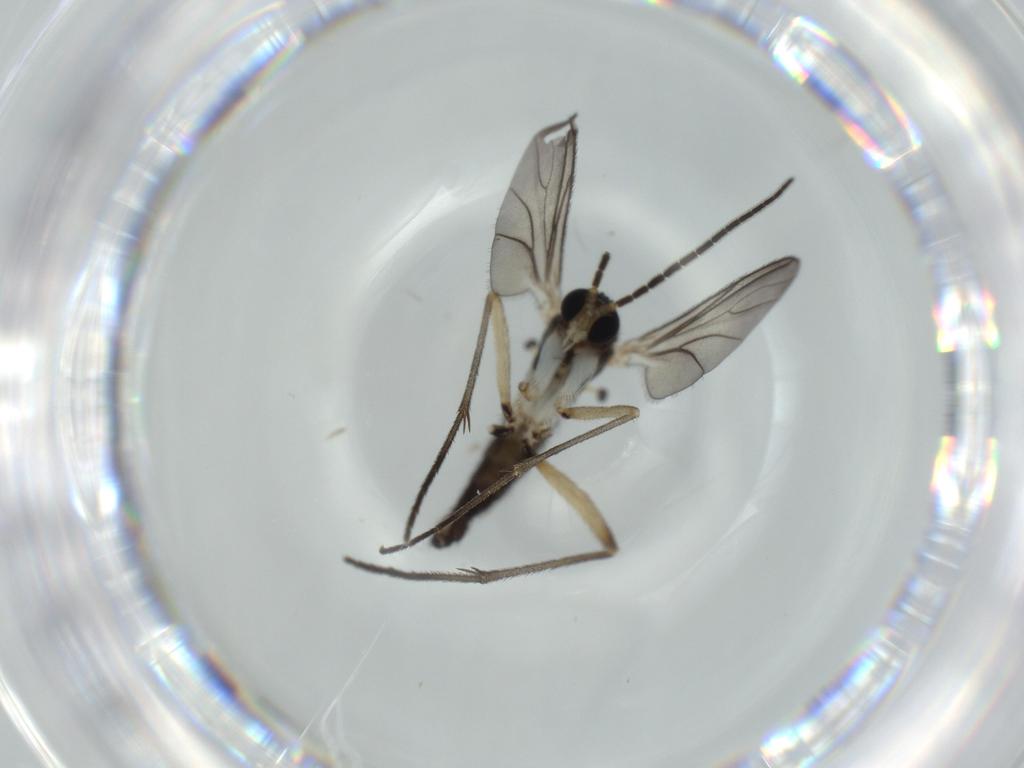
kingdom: Animalia
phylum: Arthropoda
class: Insecta
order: Diptera
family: Sciaridae
